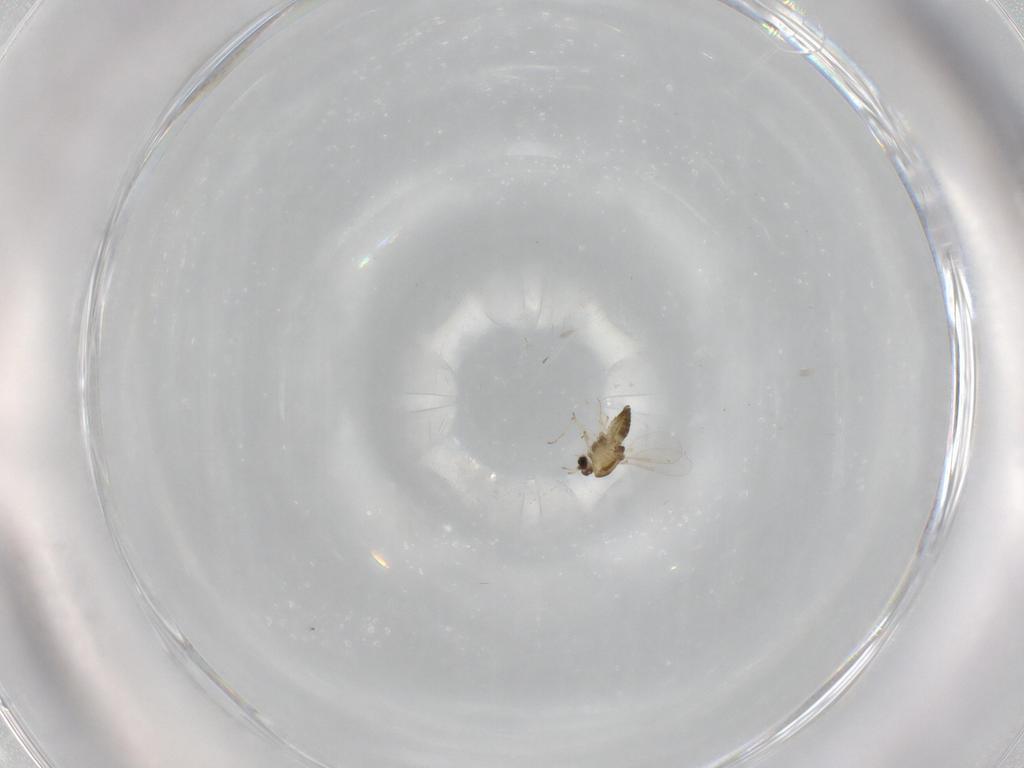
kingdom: Animalia
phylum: Arthropoda
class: Insecta
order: Diptera
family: Chironomidae
